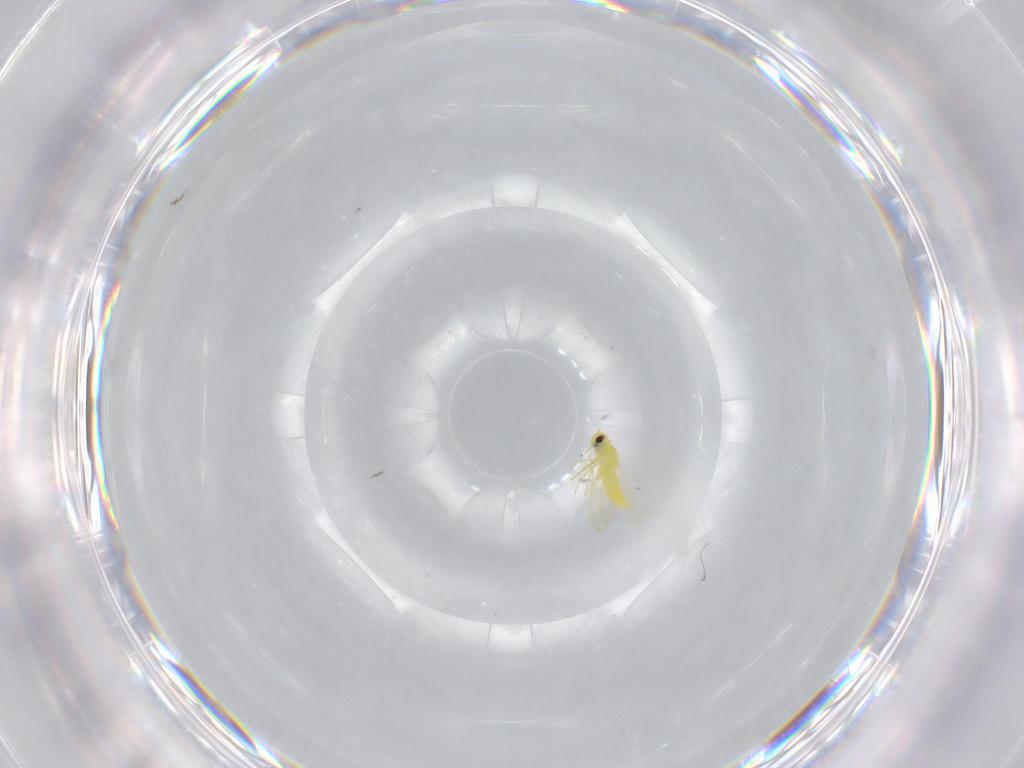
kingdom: Animalia
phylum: Arthropoda
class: Insecta
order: Hemiptera
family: Aleyrodidae
